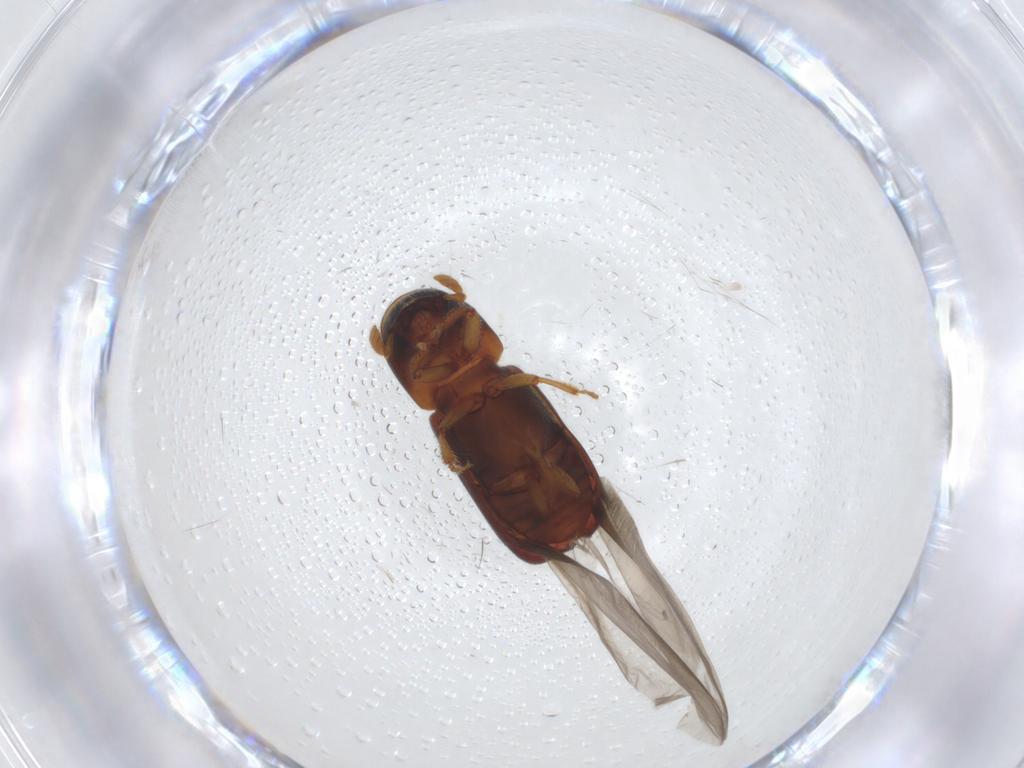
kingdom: Animalia
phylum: Arthropoda
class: Insecta
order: Coleoptera
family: Curculionidae
